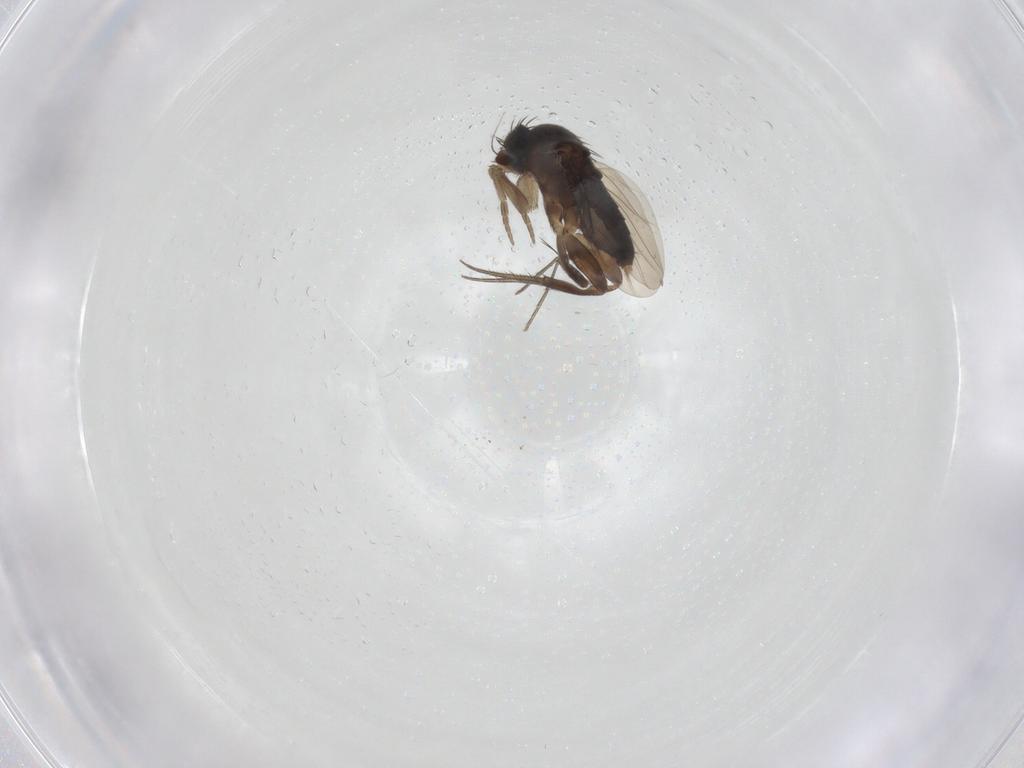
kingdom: Animalia
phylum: Arthropoda
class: Insecta
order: Diptera
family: Phoridae
